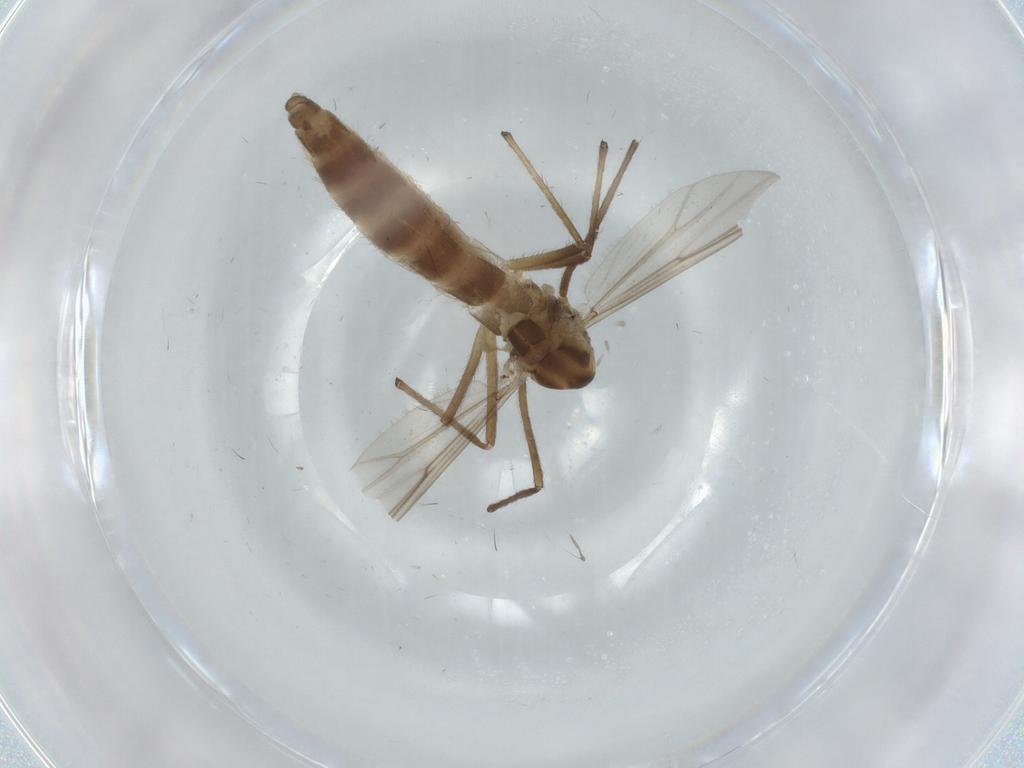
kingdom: Animalia
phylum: Arthropoda
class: Insecta
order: Diptera
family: Chironomidae
